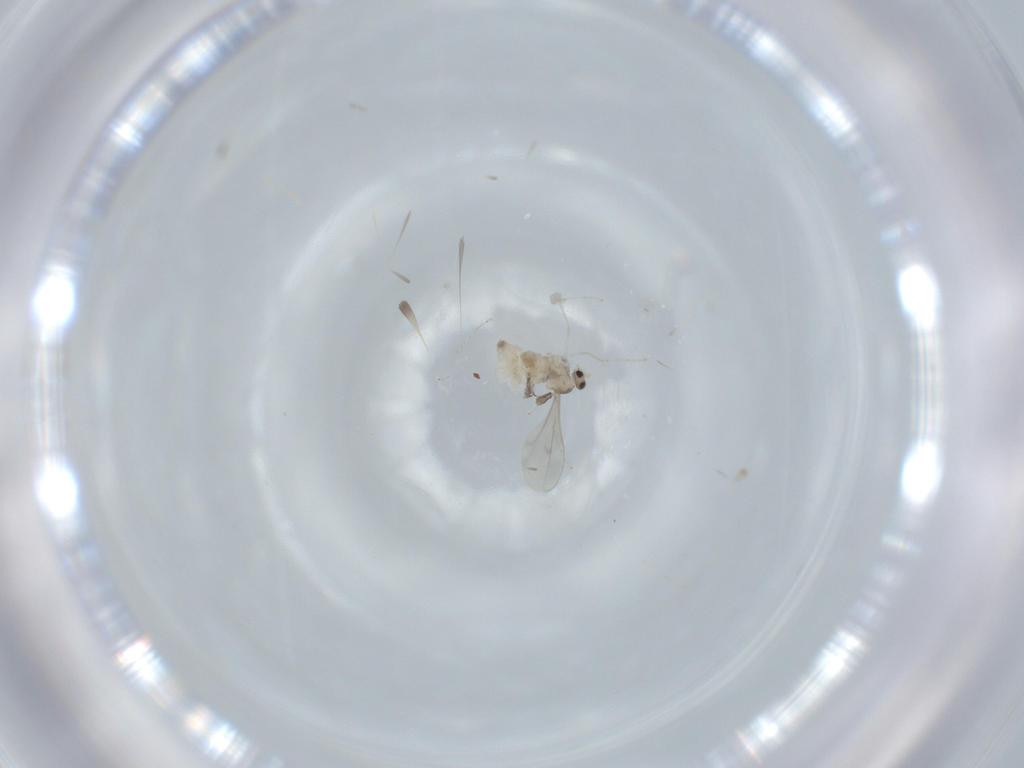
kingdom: Animalia
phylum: Arthropoda
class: Insecta
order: Diptera
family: Cecidomyiidae
